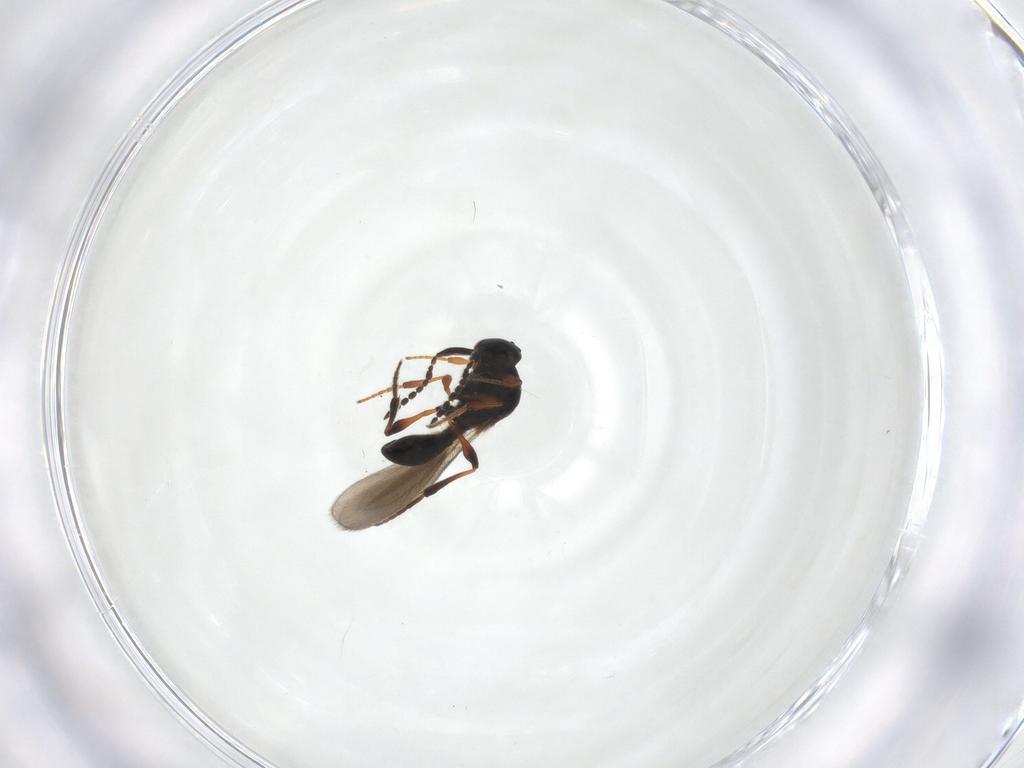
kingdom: Animalia
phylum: Arthropoda
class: Insecta
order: Hymenoptera
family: Platygastridae
